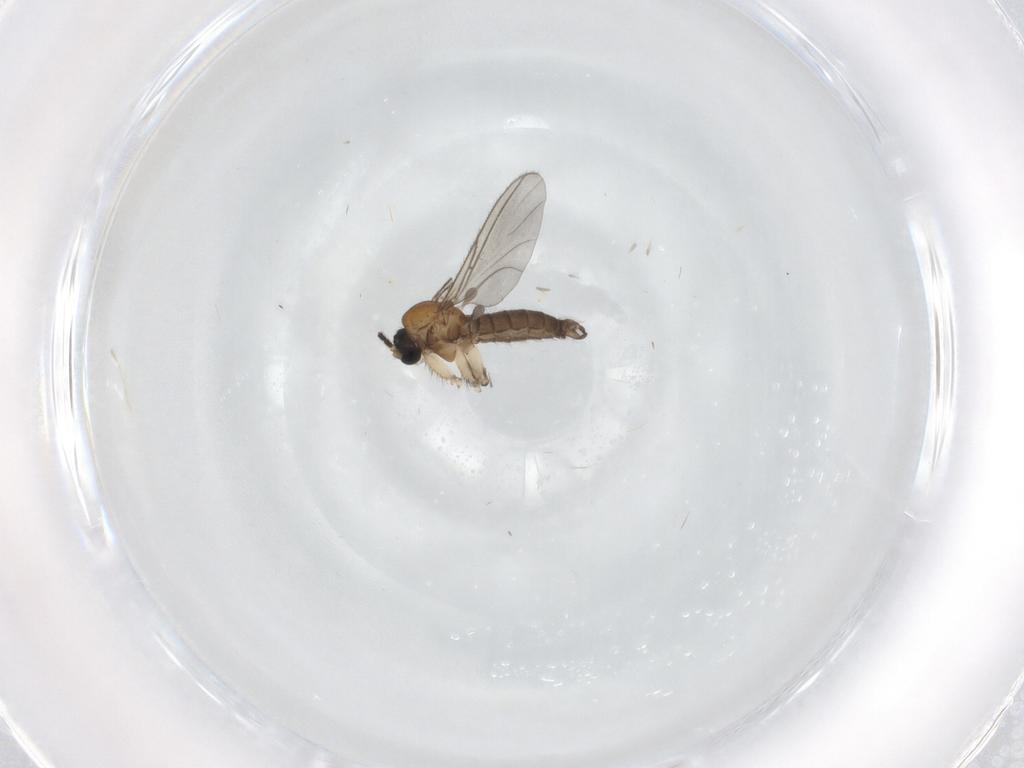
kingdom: Animalia
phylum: Arthropoda
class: Insecta
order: Diptera
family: Sciaridae
